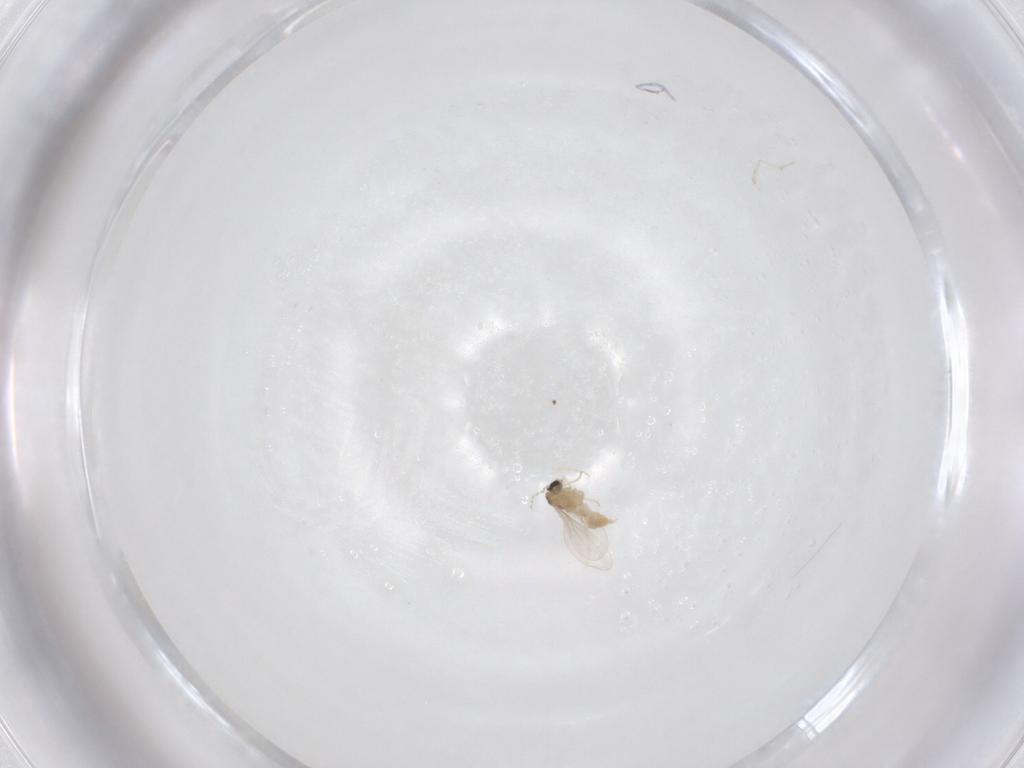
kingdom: Animalia
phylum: Arthropoda
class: Insecta
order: Diptera
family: Cecidomyiidae
